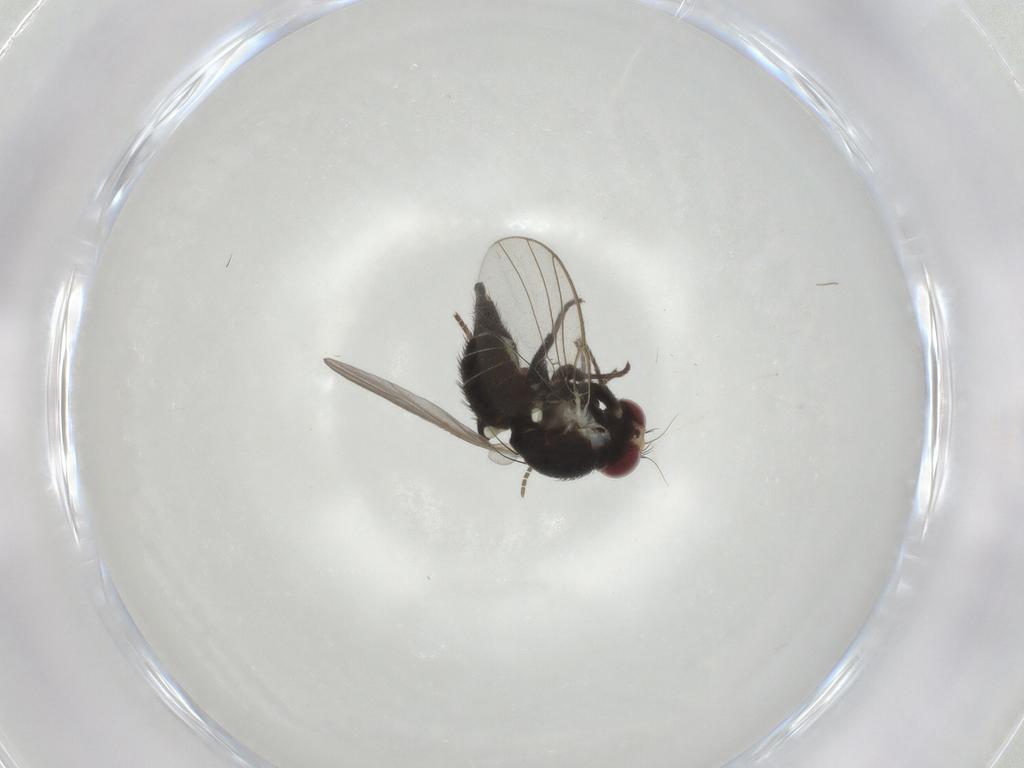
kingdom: Animalia
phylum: Arthropoda
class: Insecta
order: Diptera
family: Agromyzidae
